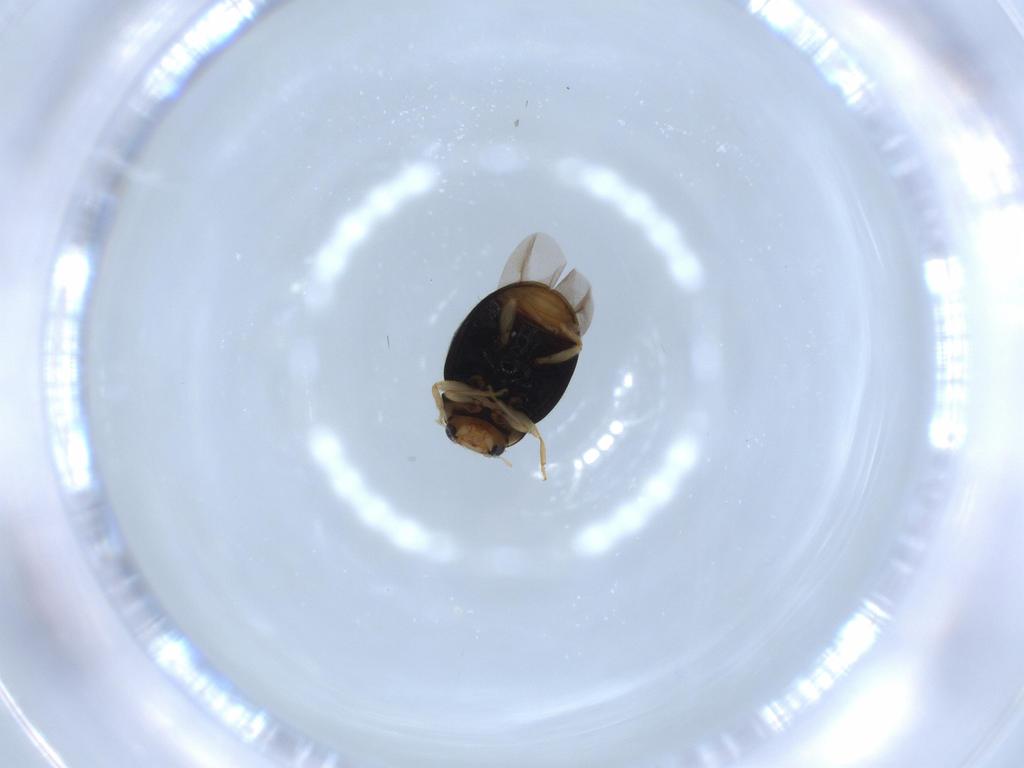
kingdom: Animalia
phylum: Arthropoda
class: Insecta
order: Coleoptera
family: Oedemeridae
